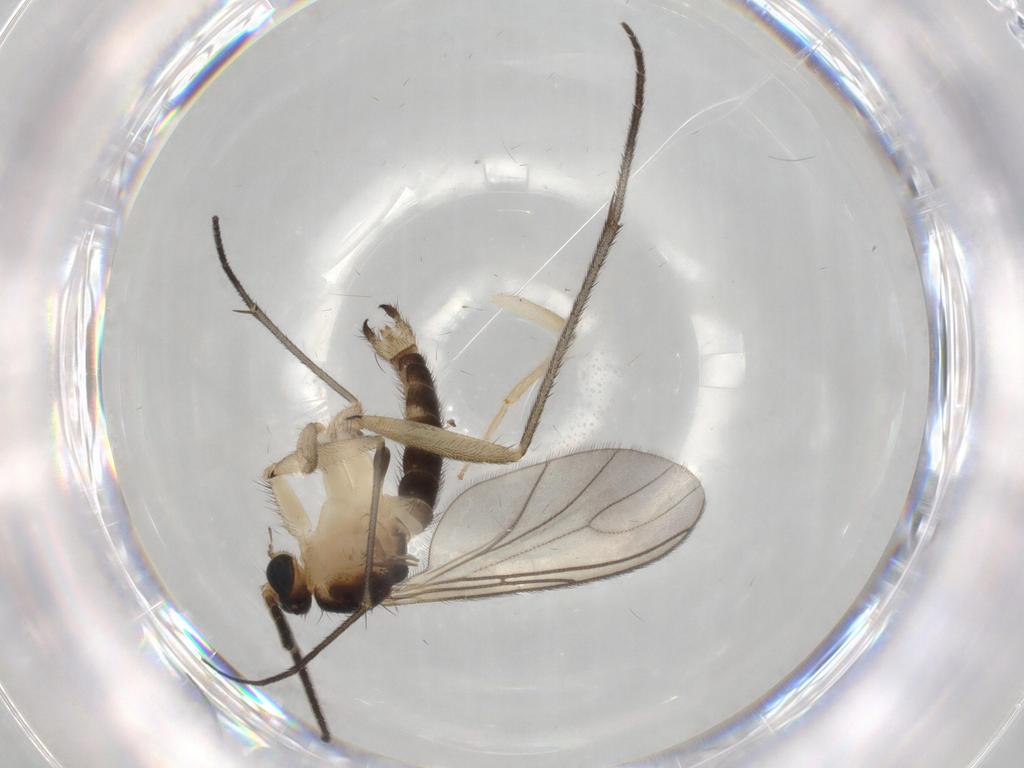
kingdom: Animalia
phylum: Arthropoda
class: Insecta
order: Diptera
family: Sciaridae
